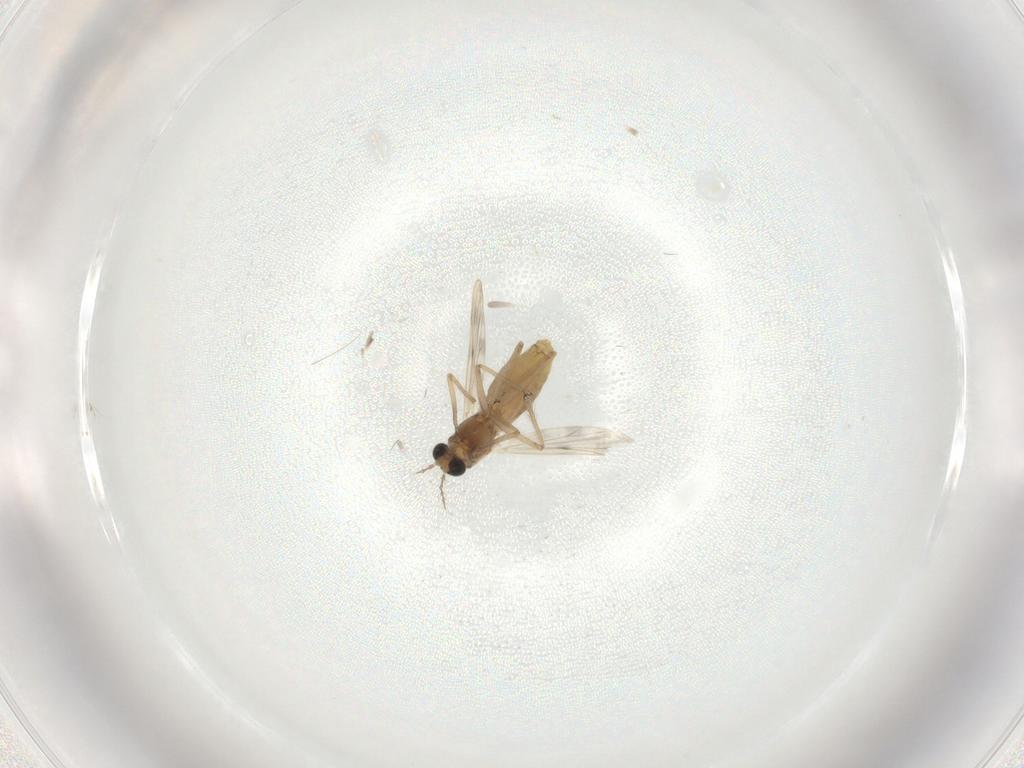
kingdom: Animalia
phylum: Arthropoda
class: Insecta
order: Diptera
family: Chironomidae
